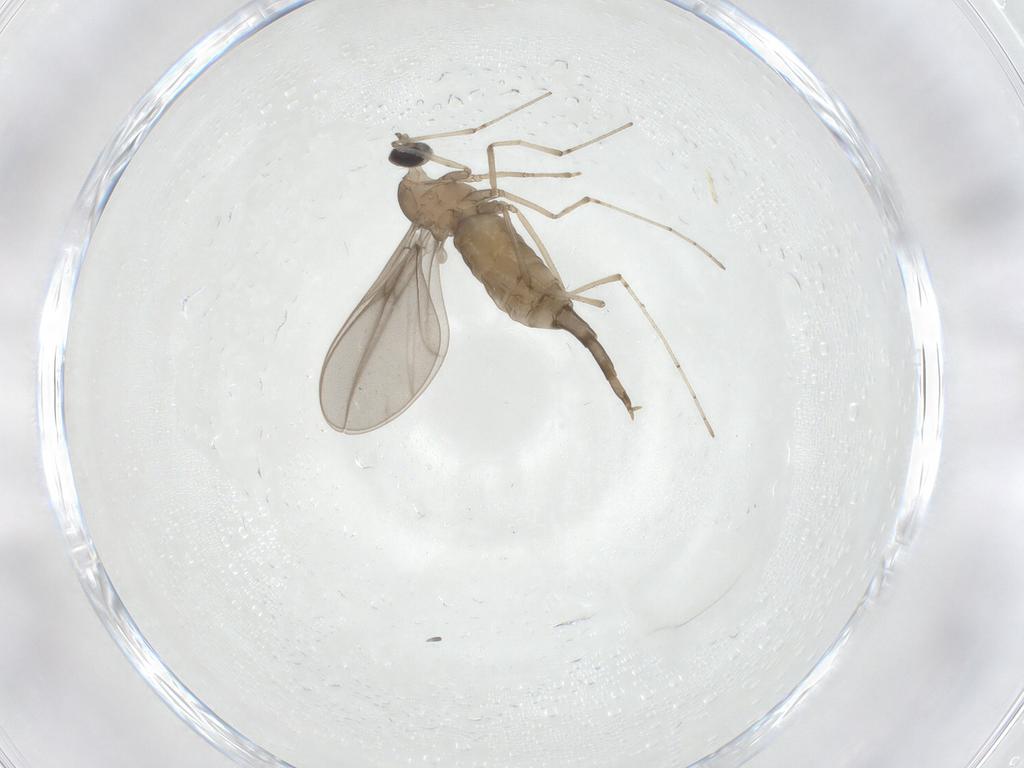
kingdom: Animalia
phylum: Arthropoda
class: Insecta
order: Diptera
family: Cecidomyiidae
